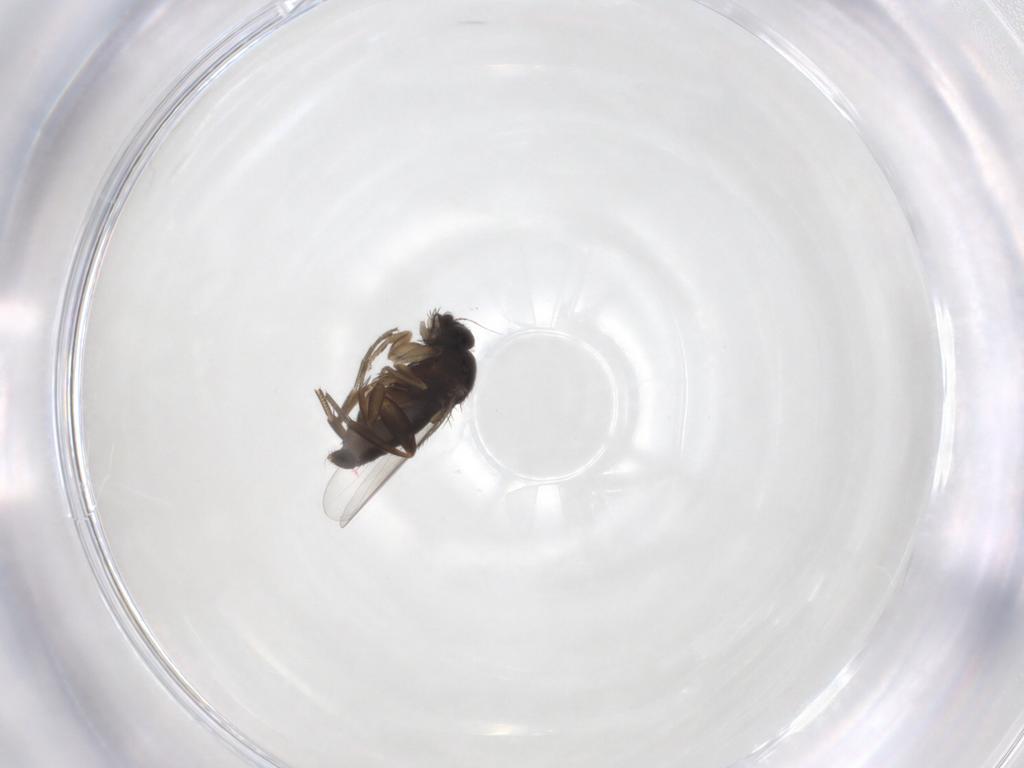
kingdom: Animalia
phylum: Arthropoda
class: Insecta
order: Diptera
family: Phoridae
